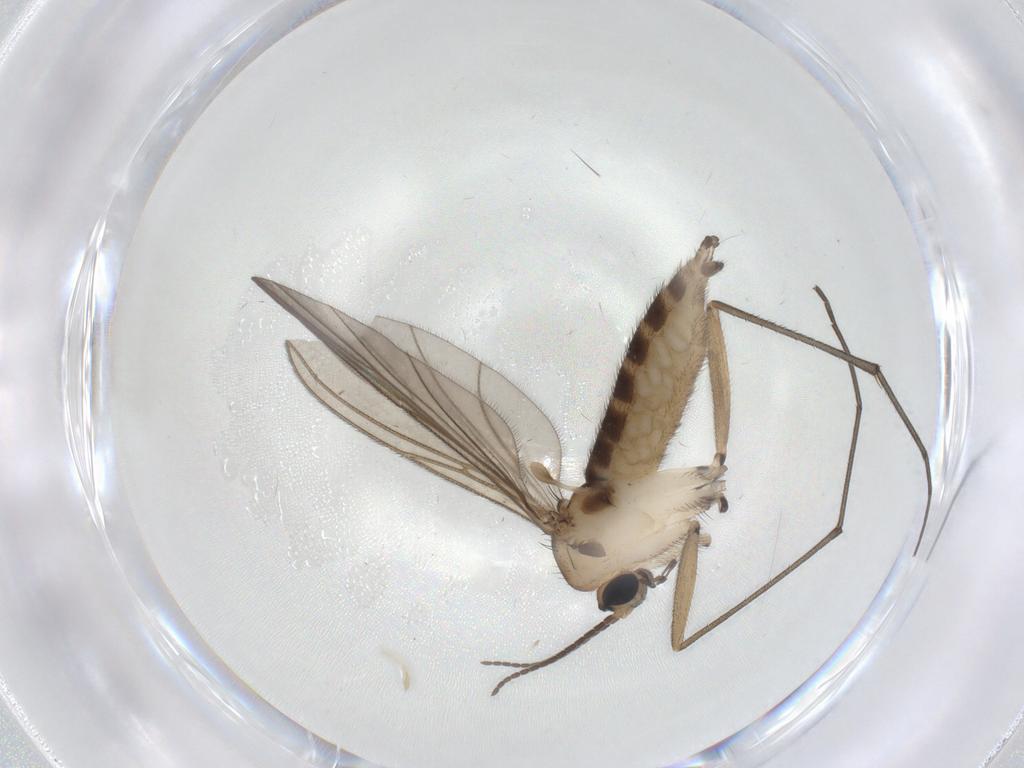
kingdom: Animalia
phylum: Arthropoda
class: Insecta
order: Diptera
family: Sciaridae
